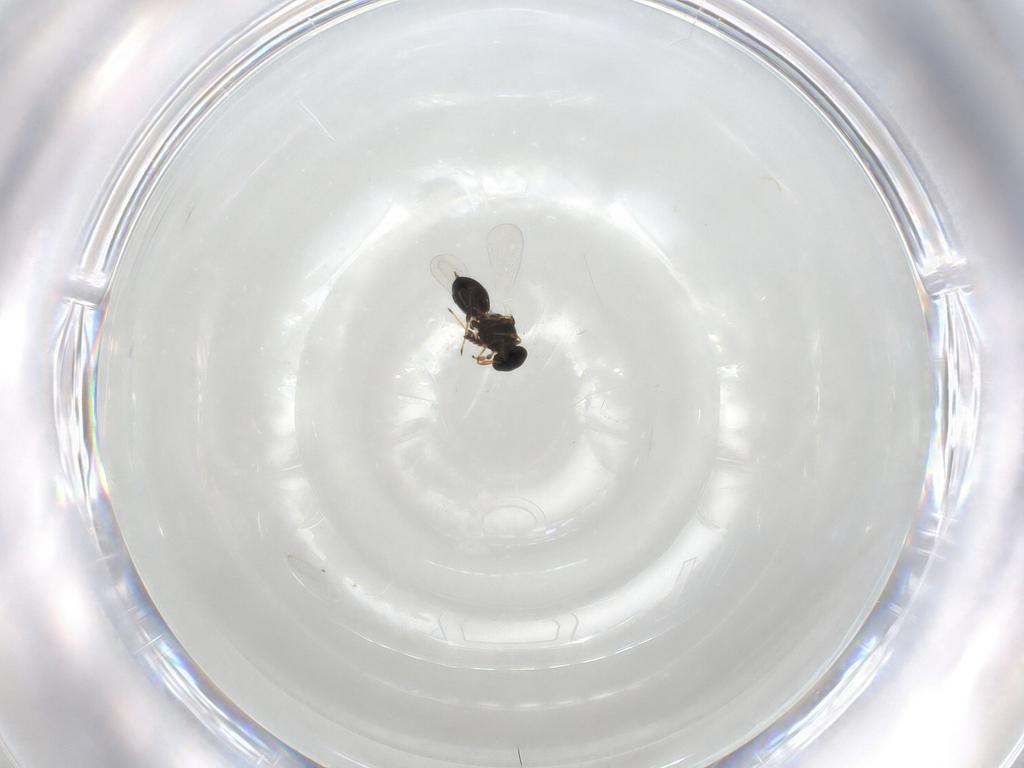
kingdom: Animalia
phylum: Arthropoda
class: Insecta
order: Hymenoptera
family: Platygastridae
